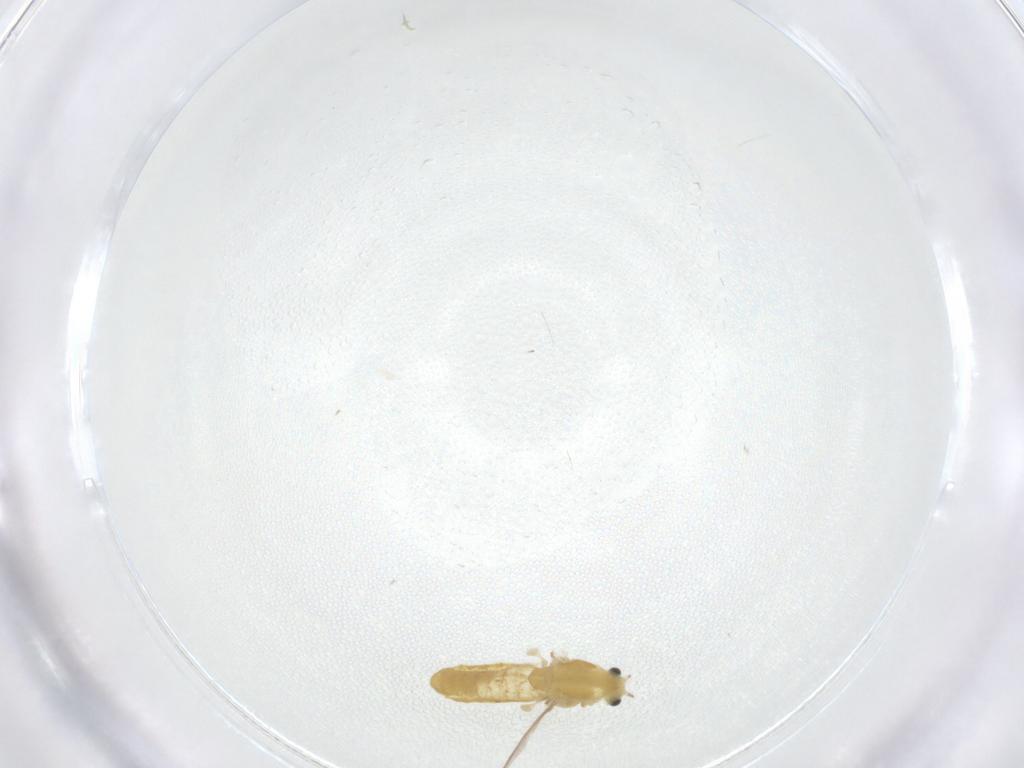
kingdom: Animalia
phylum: Arthropoda
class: Insecta
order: Diptera
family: Chironomidae
